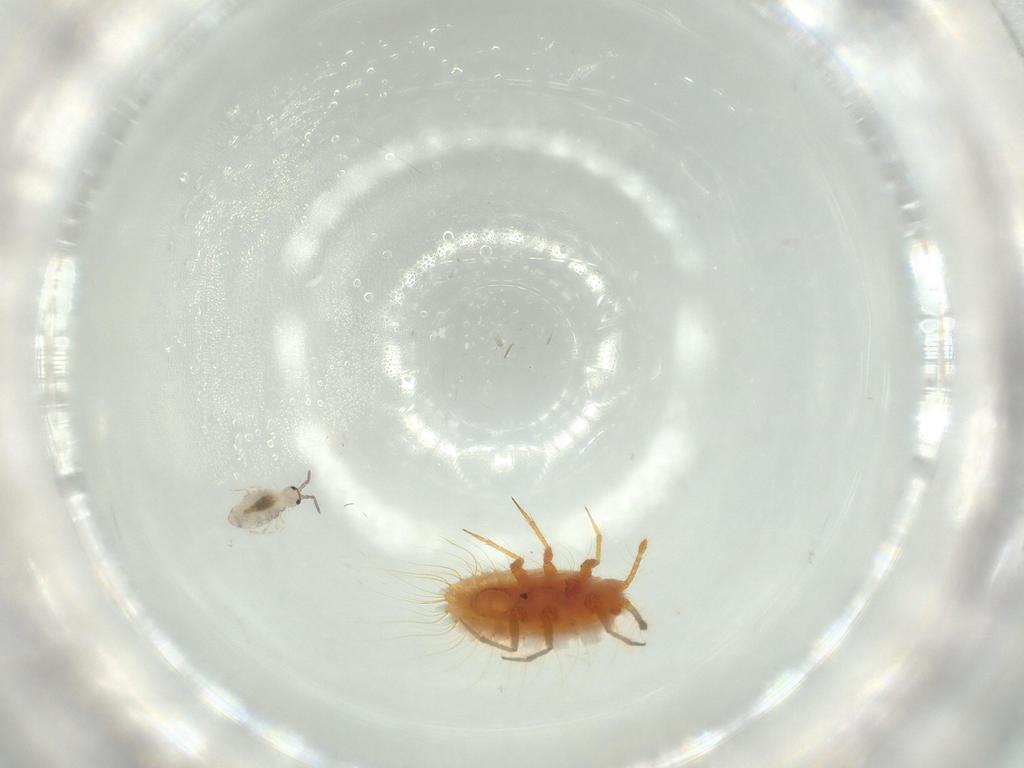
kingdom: Animalia
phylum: Arthropoda
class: Collembola
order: Entomobryomorpha
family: Entomobryidae
